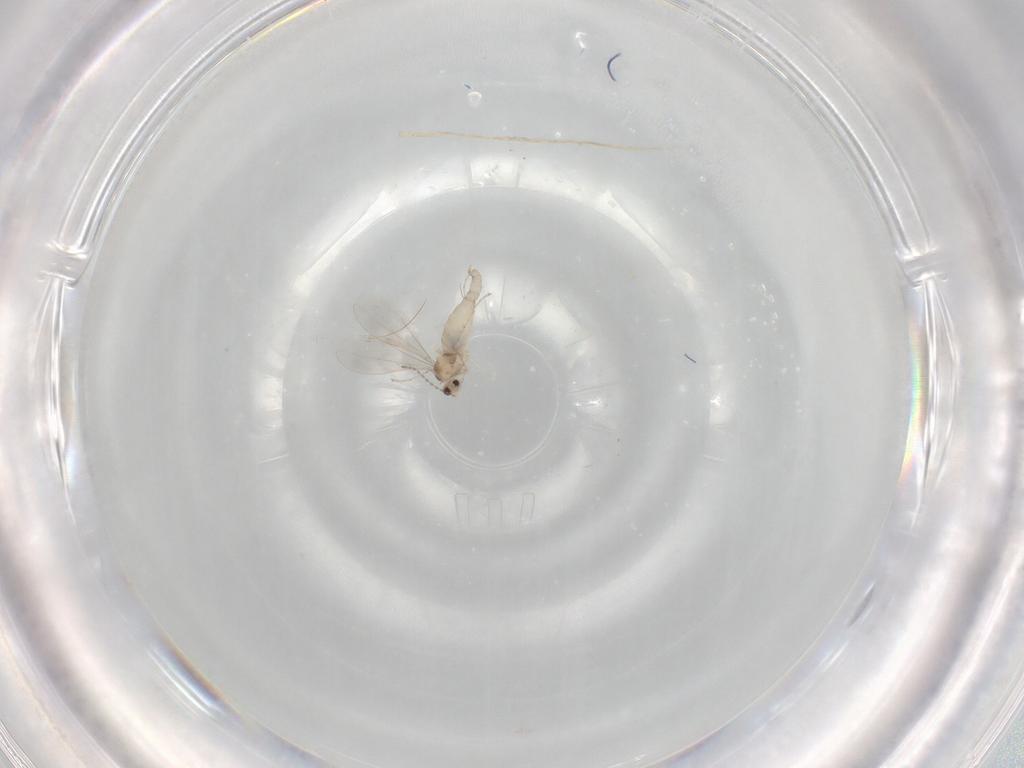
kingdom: Animalia
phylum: Arthropoda
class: Insecta
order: Diptera
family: Cecidomyiidae
